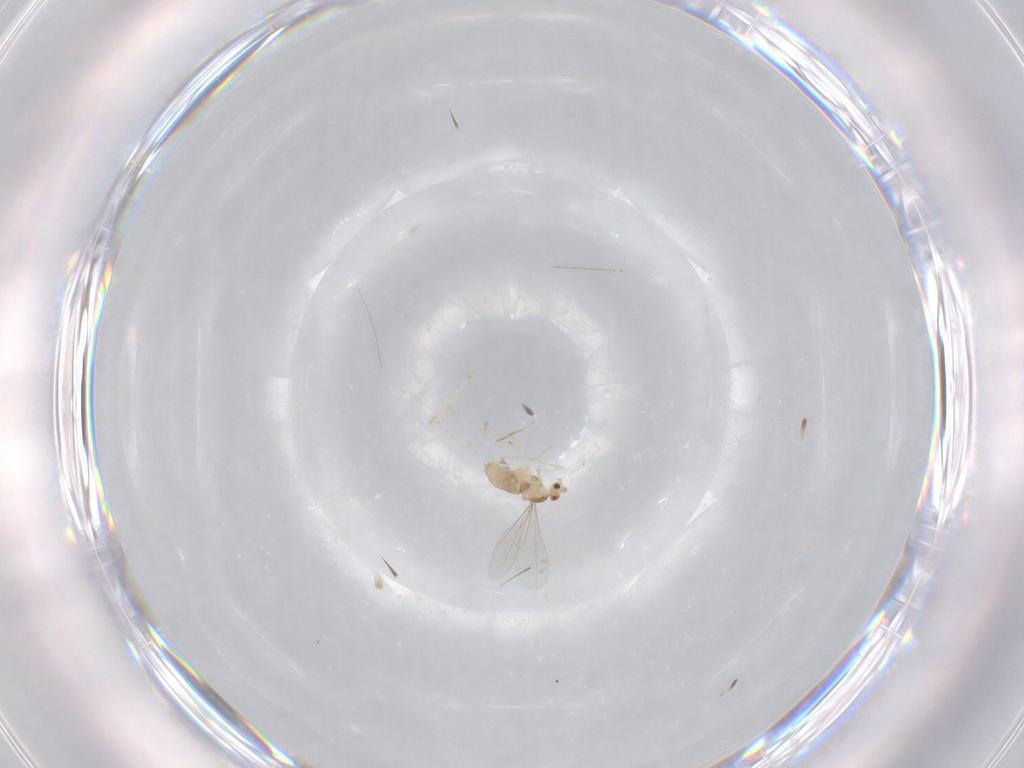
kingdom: Animalia
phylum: Arthropoda
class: Insecta
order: Diptera
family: Cecidomyiidae
